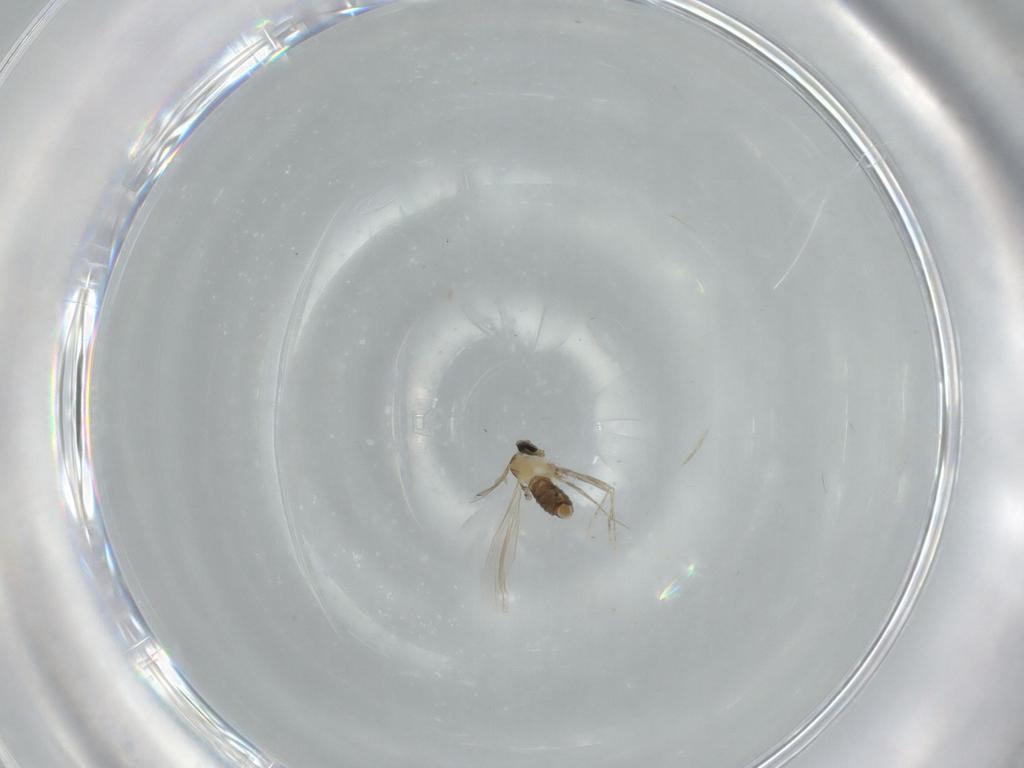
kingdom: Animalia
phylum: Arthropoda
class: Insecta
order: Diptera
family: Cecidomyiidae
